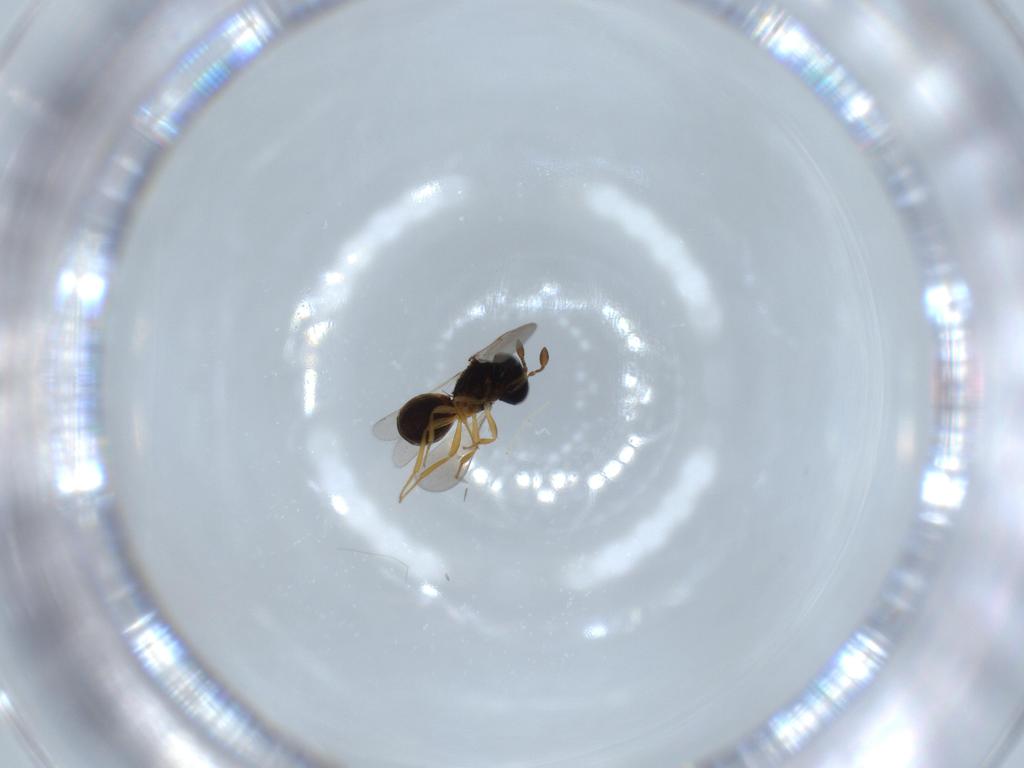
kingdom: Animalia
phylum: Arthropoda
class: Insecta
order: Hymenoptera
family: Scelionidae
